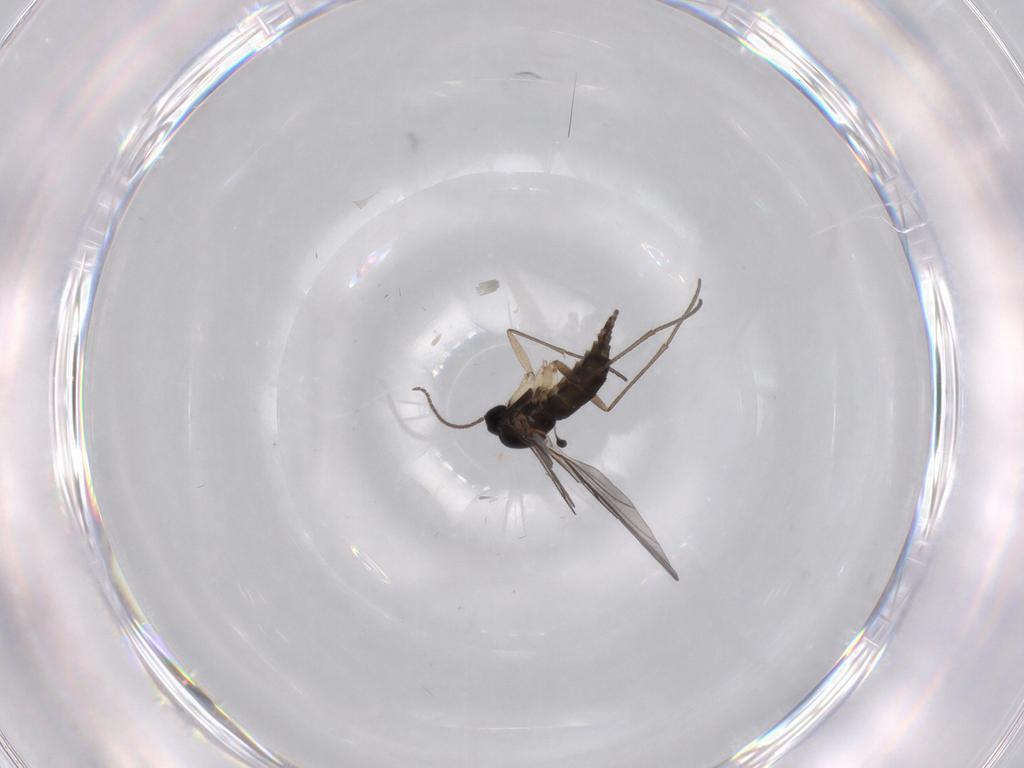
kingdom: Animalia
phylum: Arthropoda
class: Insecta
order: Diptera
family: Sciaridae
